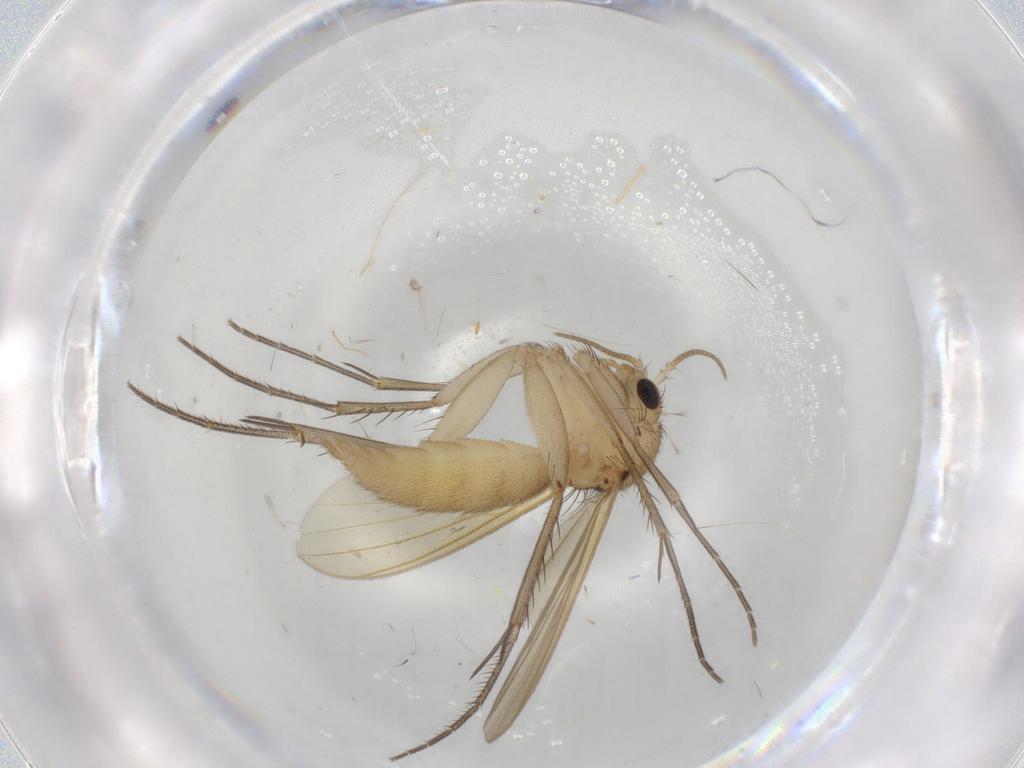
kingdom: Animalia
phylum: Arthropoda
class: Insecta
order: Diptera
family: Mycetophilidae
